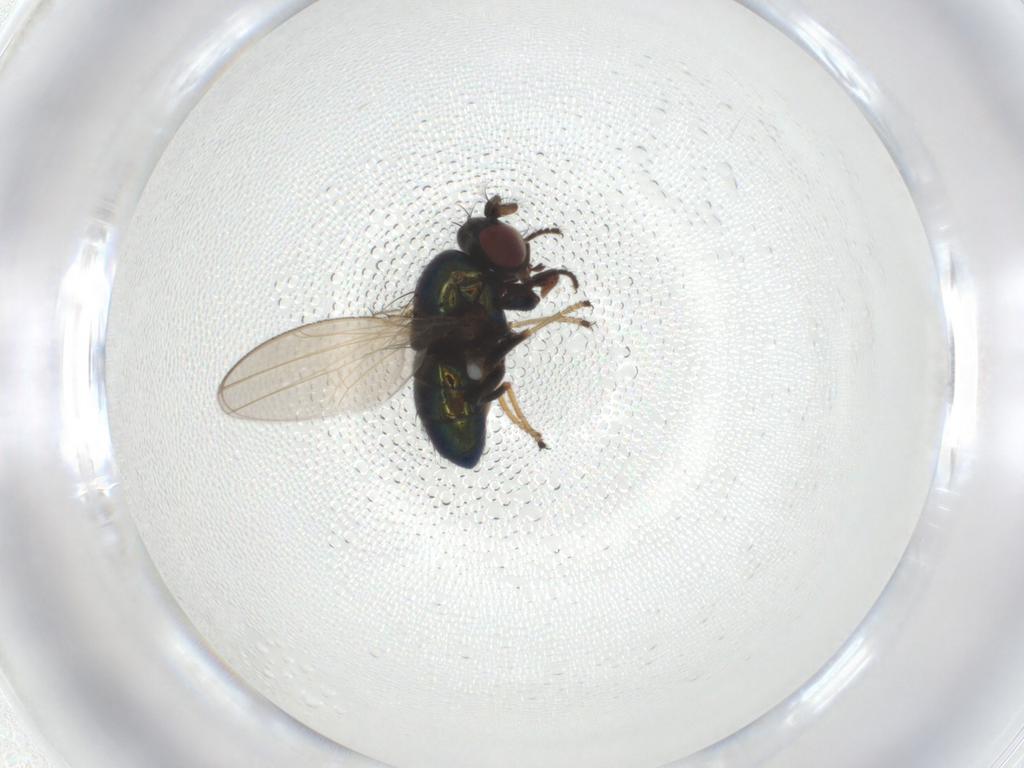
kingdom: Animalia
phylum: Arthropoda
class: Insecta
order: Diptera
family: Ephydridae
